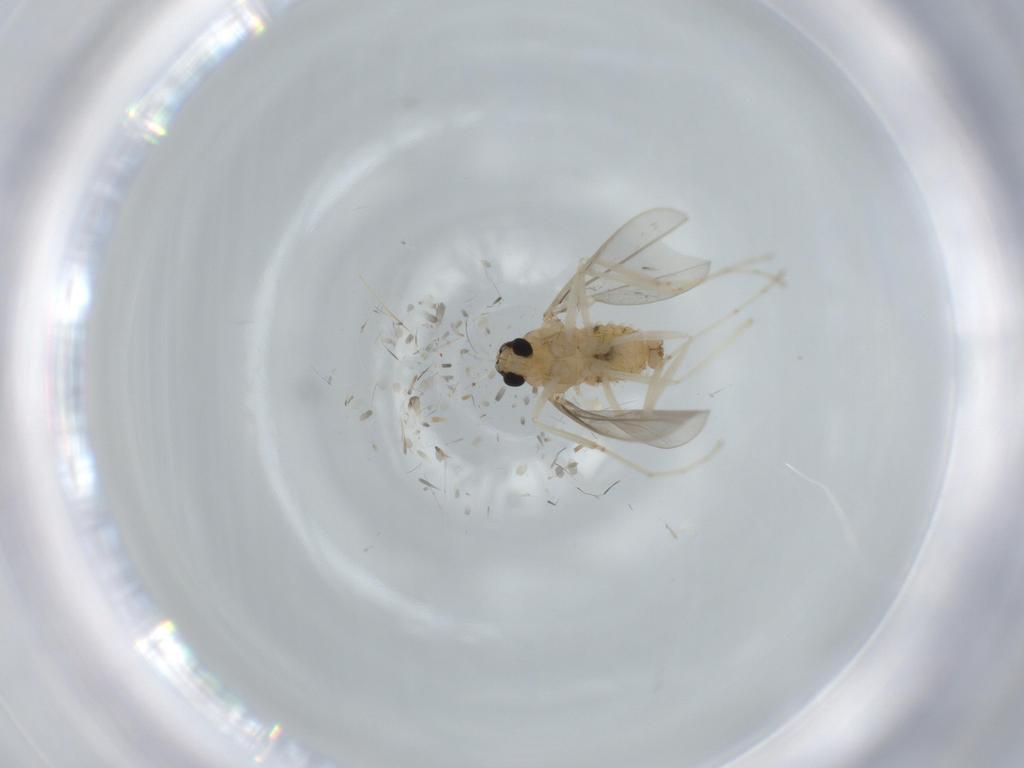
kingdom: Animalia
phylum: Arthropoda
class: Insecta
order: Diptera
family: Cecidomyiidae
